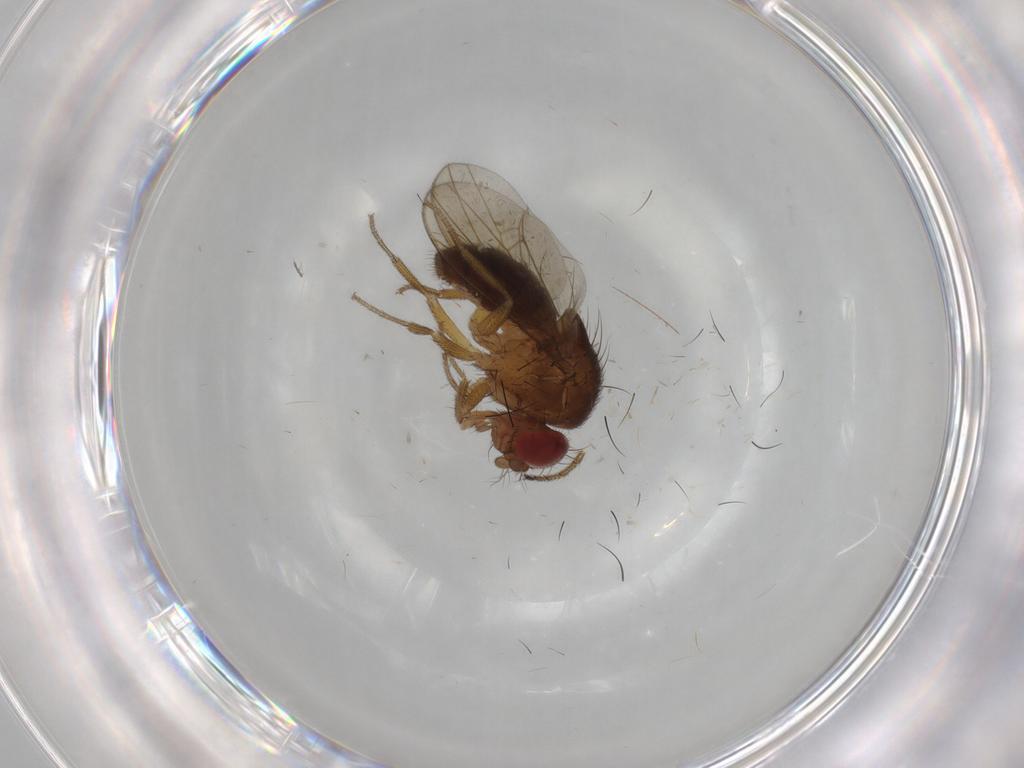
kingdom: Animalia
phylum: Arthropoda
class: Insecta
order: Diptera
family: Drosophilidae
